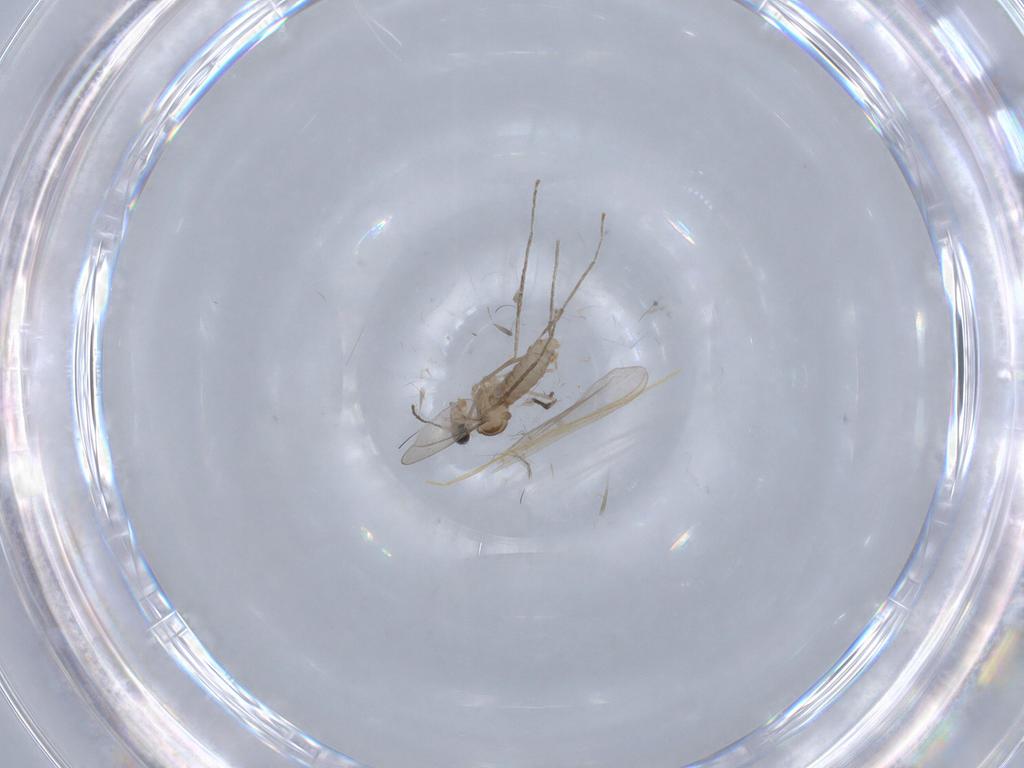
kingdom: Animalia
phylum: Arthropoda
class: Insecta
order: Diptera
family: Cecidomyiidae
